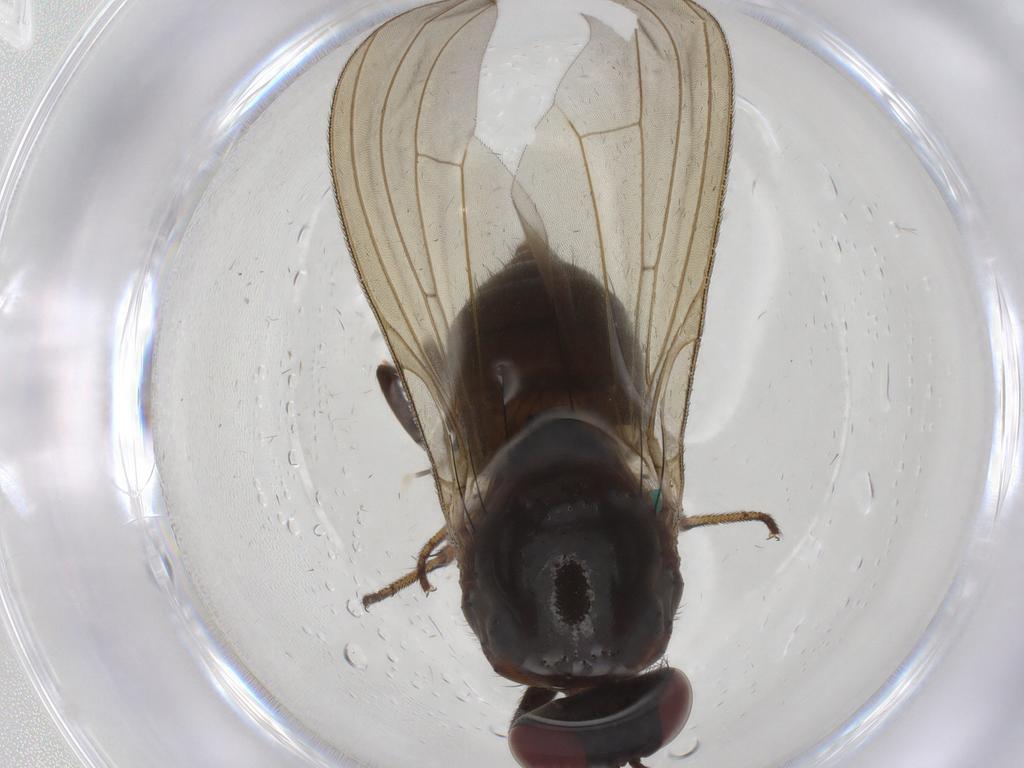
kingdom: Animalia
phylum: Arthropoda
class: Insecta
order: Diptera
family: Chironomidae
